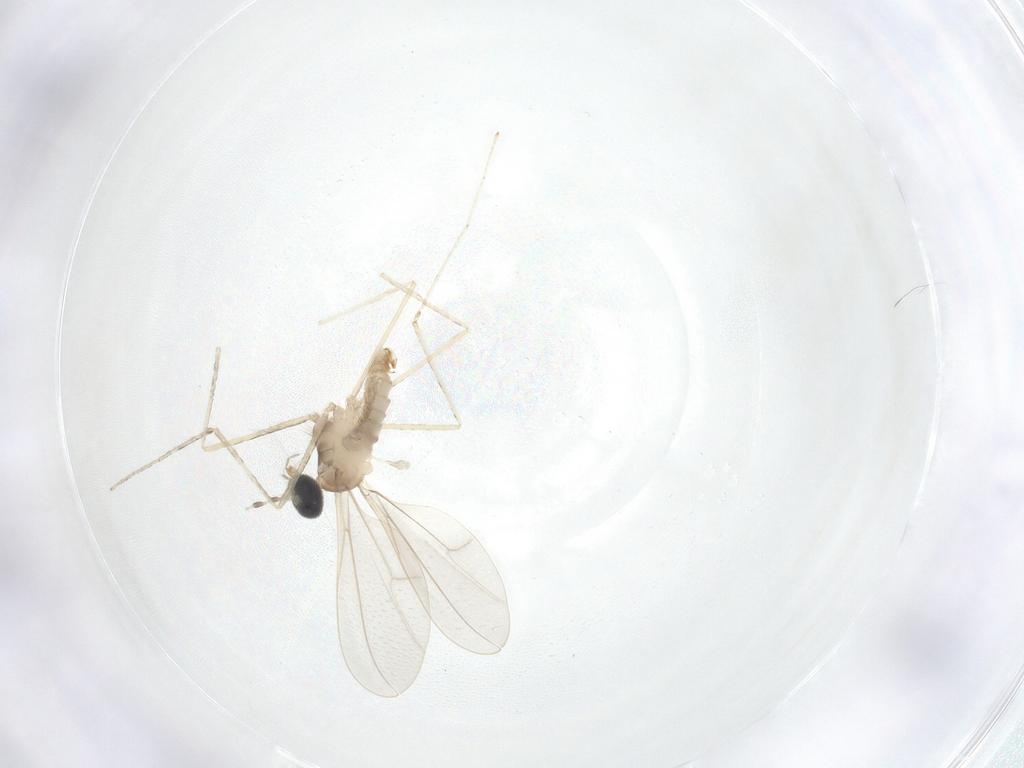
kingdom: Animalia
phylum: Arthropoda
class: Insecta
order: Diptera
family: Cecidomyiidae
